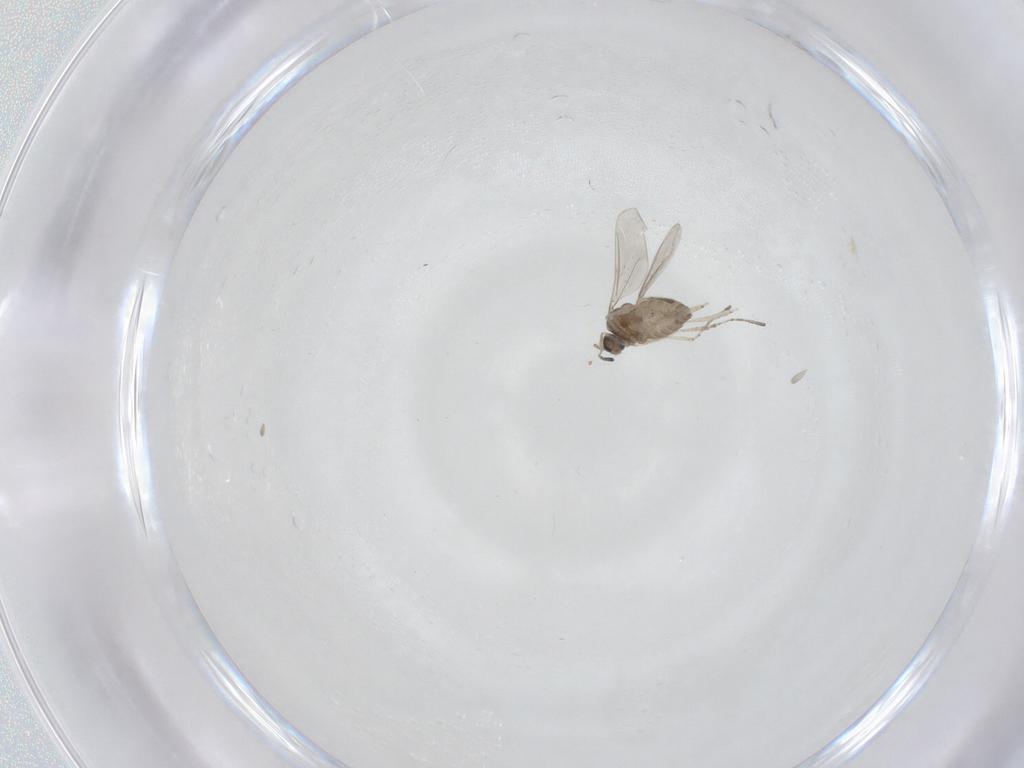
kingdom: Animalia
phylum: Arthropoda
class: Insecta
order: Diptera
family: Cecidomyiidae
